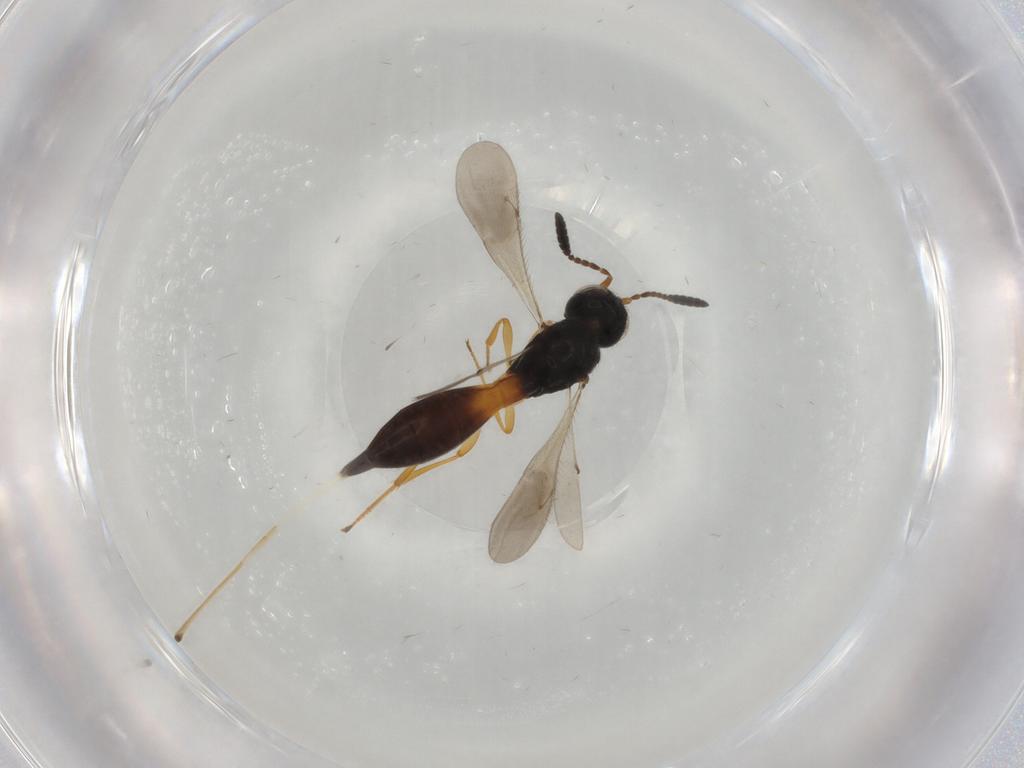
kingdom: Animalia
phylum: Arthropoda
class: Insecta
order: Hymenoptera
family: Scelionidae
